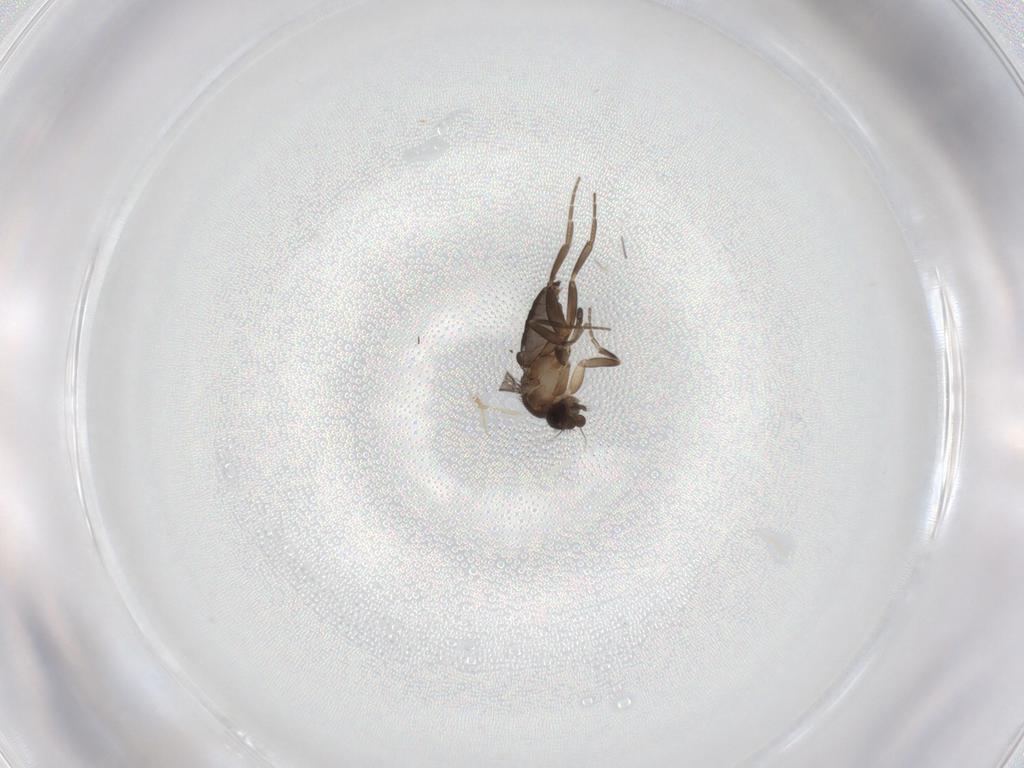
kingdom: Animalia
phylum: Arthropoda
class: Insecta
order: Diptera
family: Phoridae
